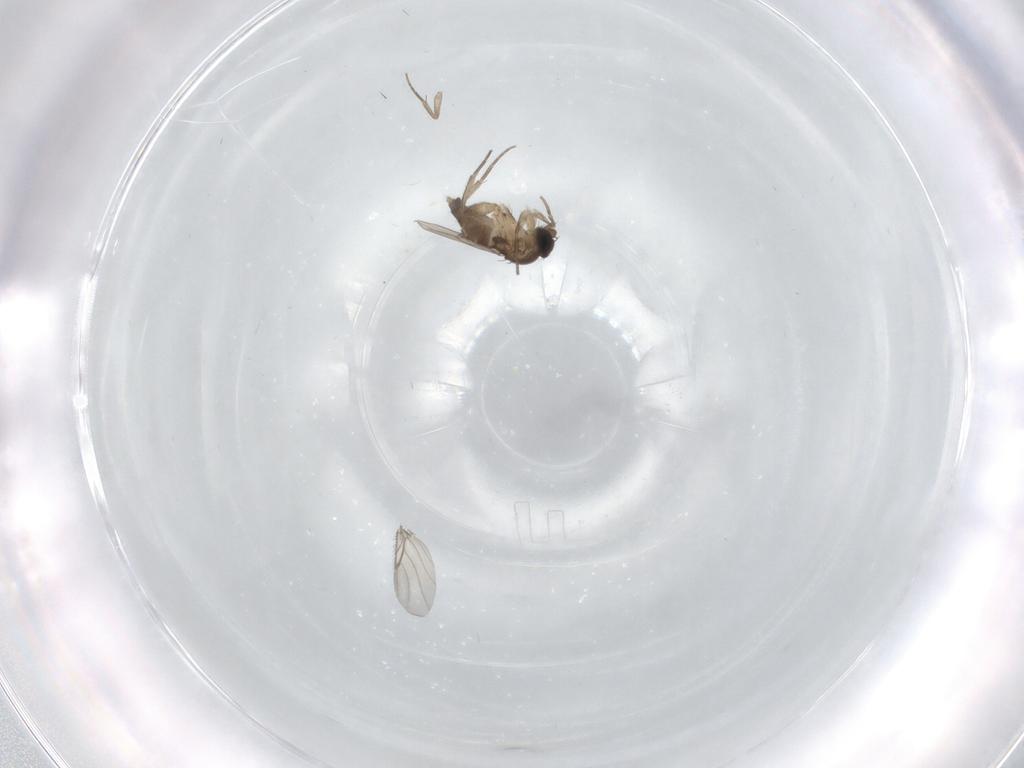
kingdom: Animalia
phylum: Arthropoda
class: Insecta
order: Diptera
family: Phoridae
